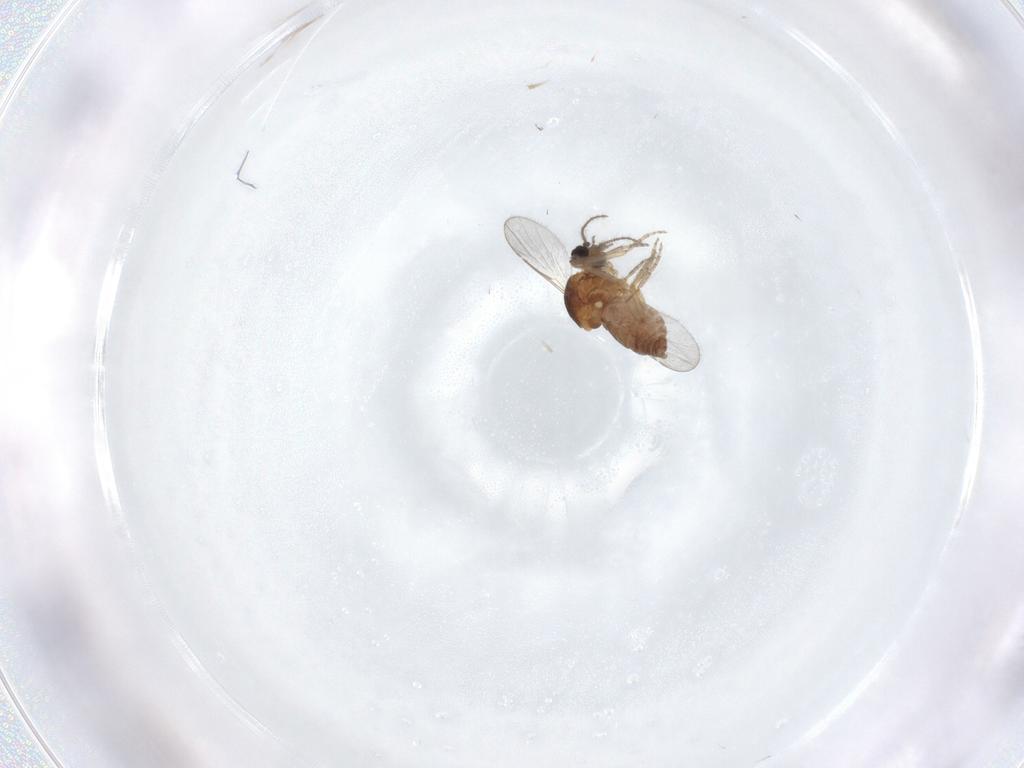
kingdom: Animalia
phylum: Arthropoda
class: Insecta
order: Diptera
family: Ceratopogonidae
